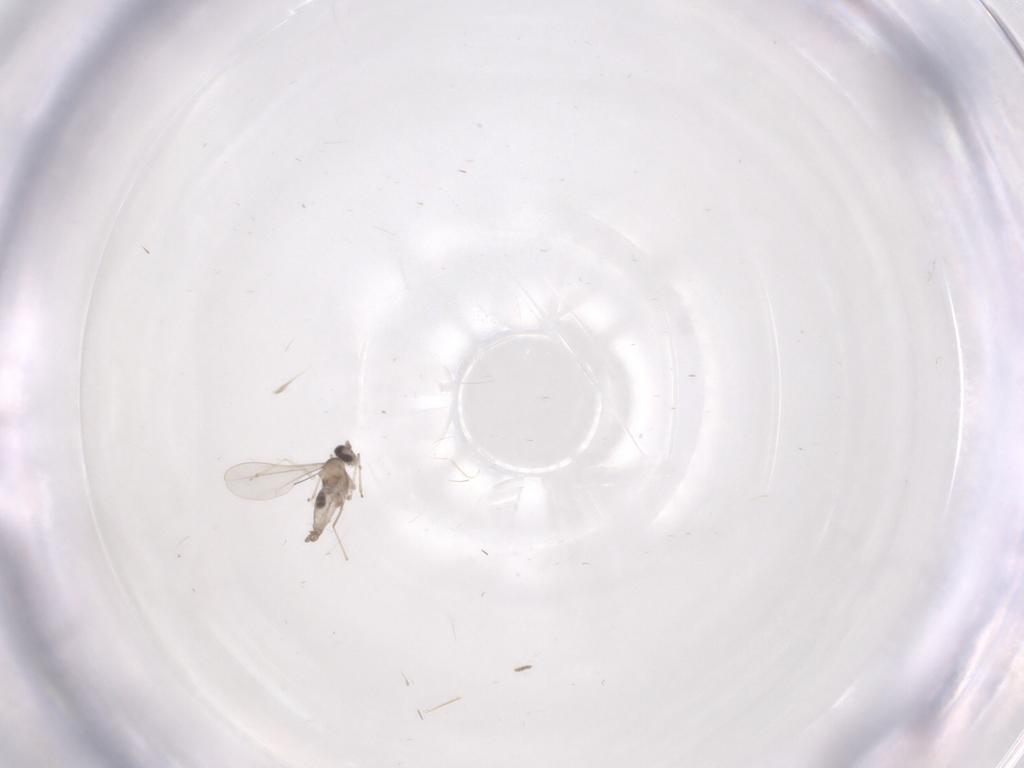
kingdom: Animalia
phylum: Arthropoda
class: Insecta
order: Diptera
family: Cecidomyiidae
